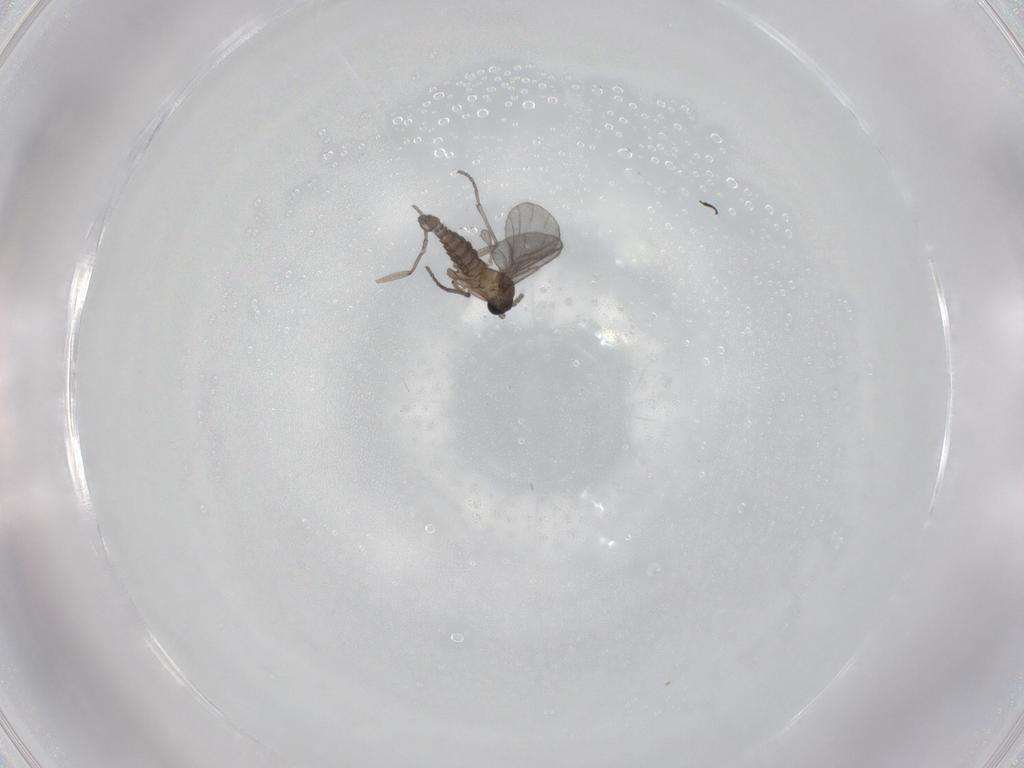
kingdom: Animalia
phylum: Arthropoda
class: Insecta
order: Diptera
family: Sciaridae
